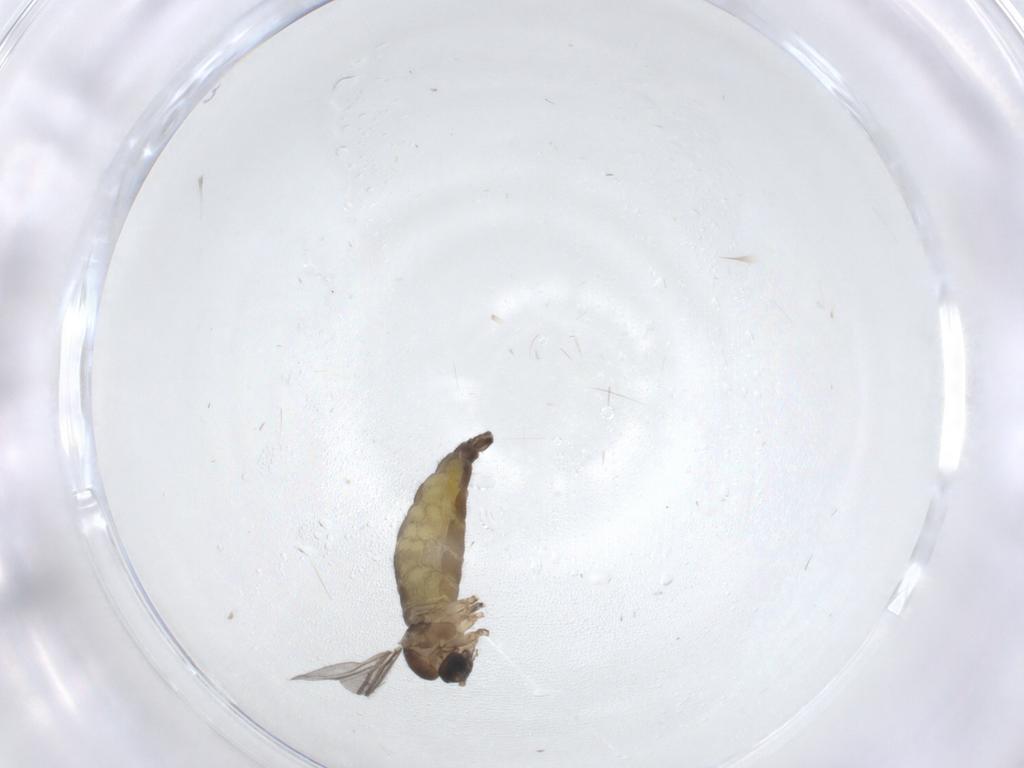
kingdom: Animalia
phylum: Arthropoda
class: Insecta
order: Diptera
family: Sciaridae
